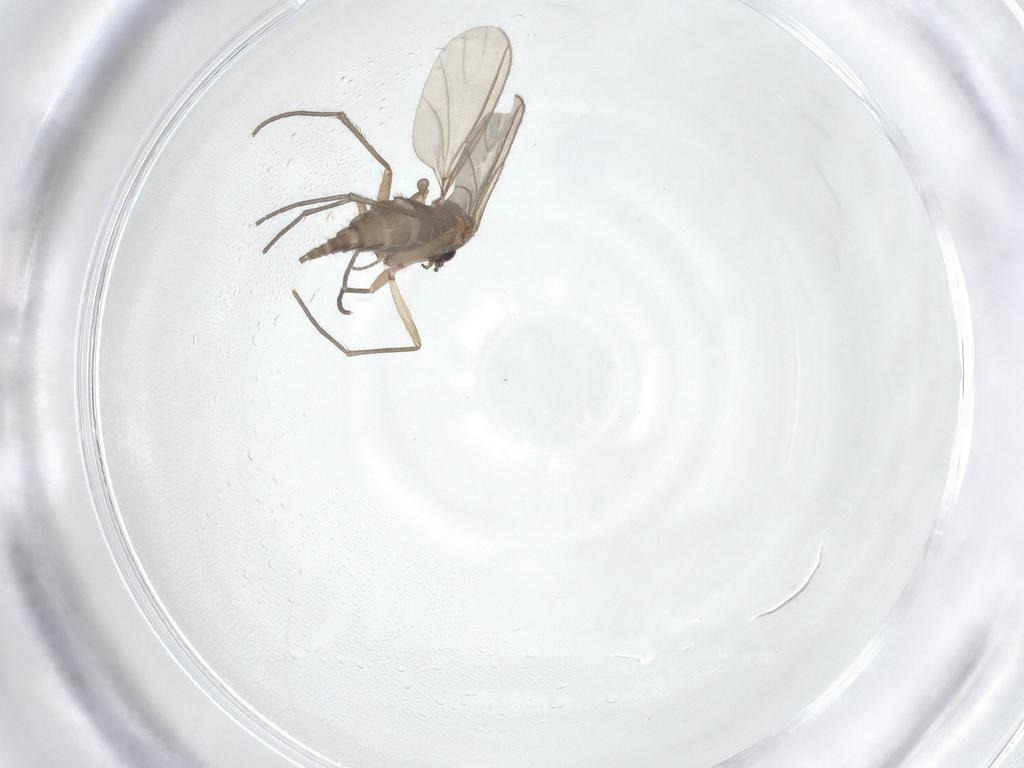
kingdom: Animalia
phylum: Arthropoda
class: Insecta
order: Diptera
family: Sciaridae
